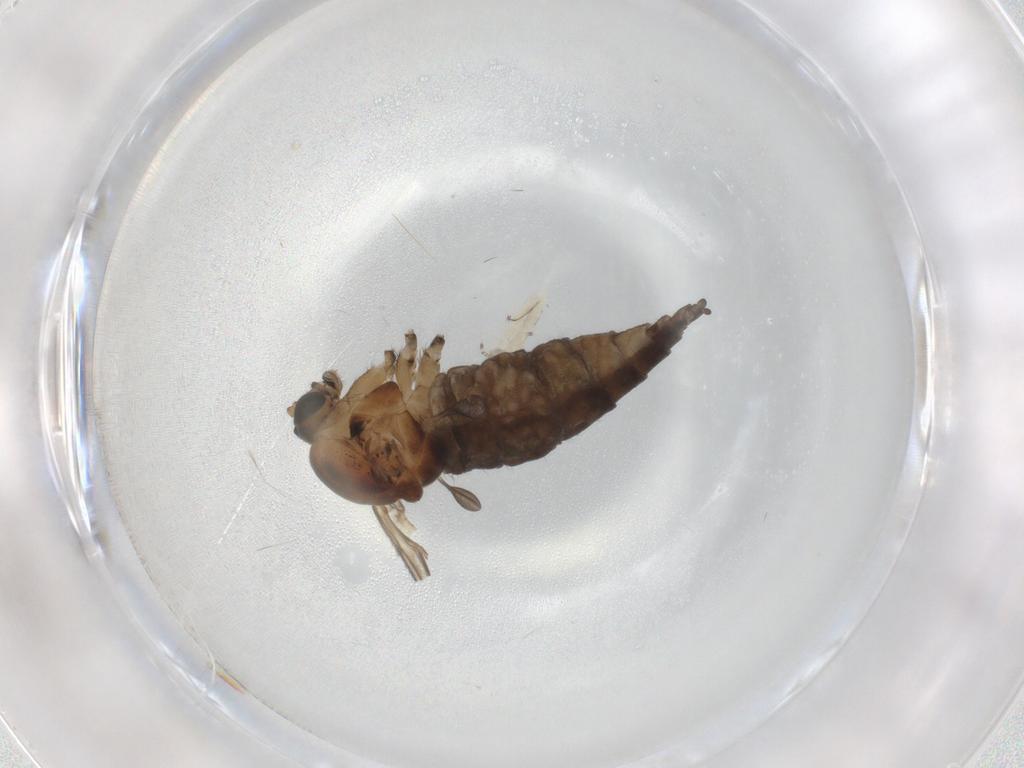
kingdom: Animalia
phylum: Arthropoda
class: Insecta
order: Diptera
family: Sciaridae
